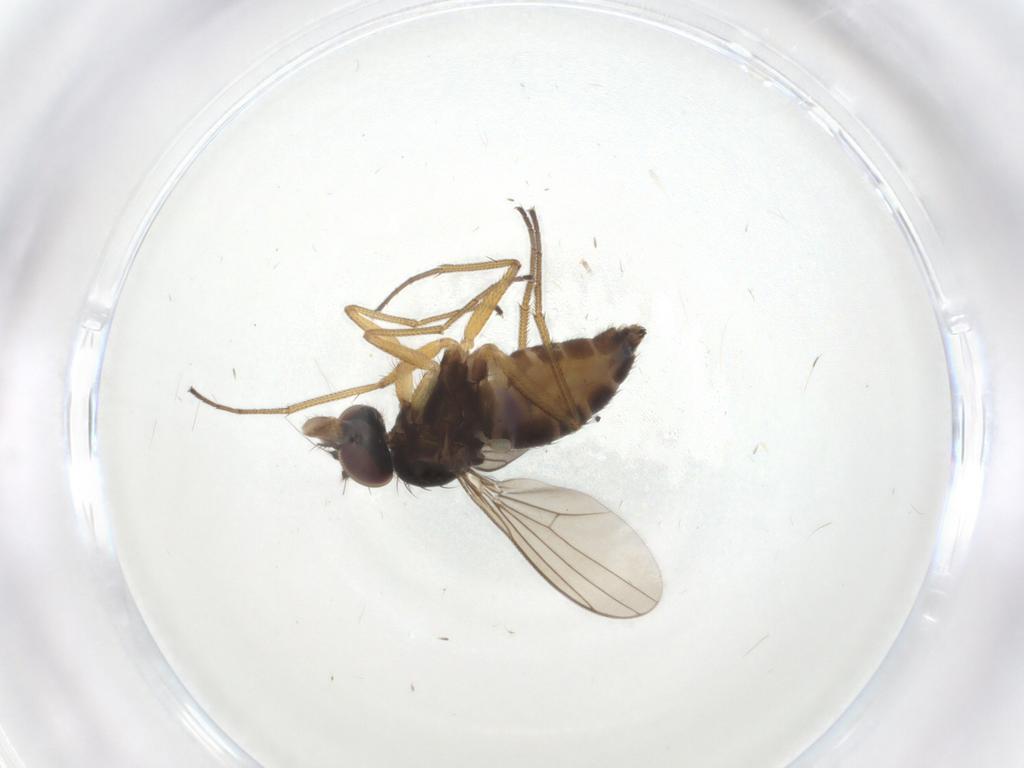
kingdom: Animalia
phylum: Arthropoda
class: Insecta
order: Diptera
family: Dolichopodidae
